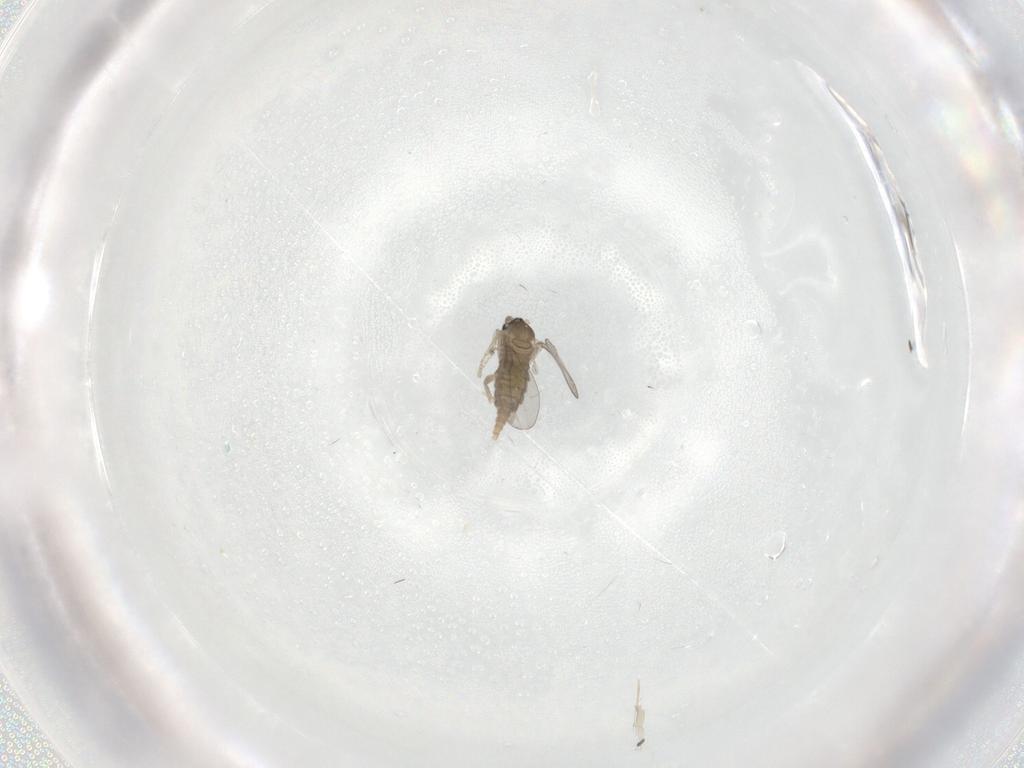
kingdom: Animalia
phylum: Arthropoda
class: Insecta
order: Diptera
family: Cecidomyiidae
